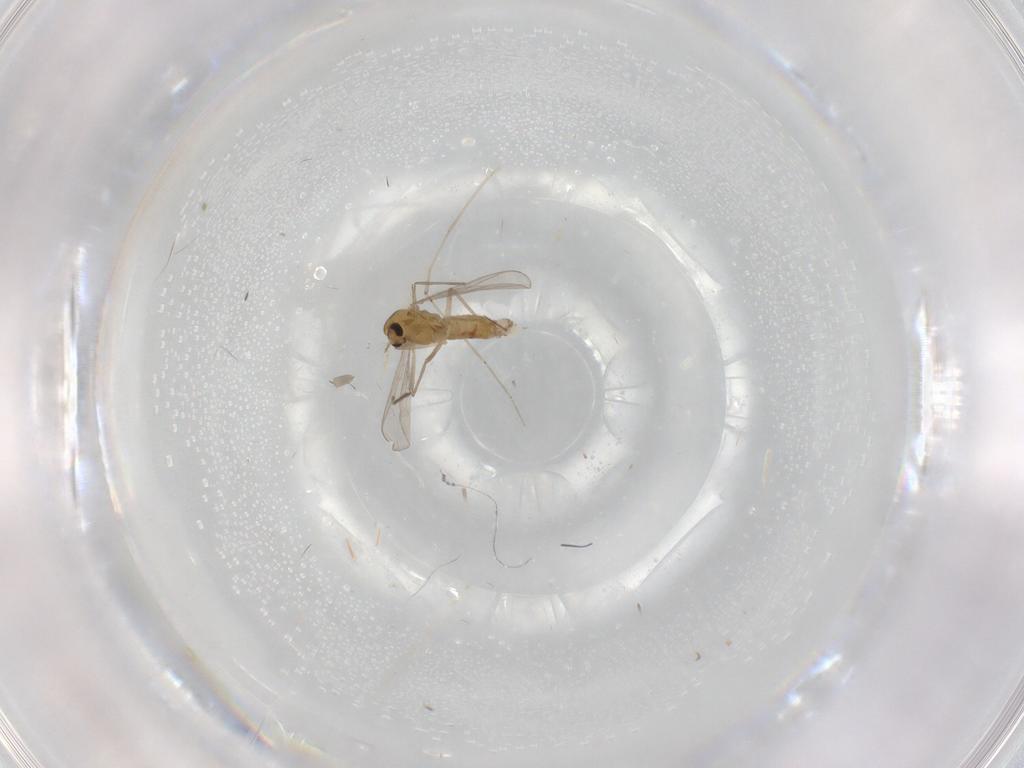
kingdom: Animalia
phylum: Arthropoda
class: Insecta
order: Diptera
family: Chironomidae
